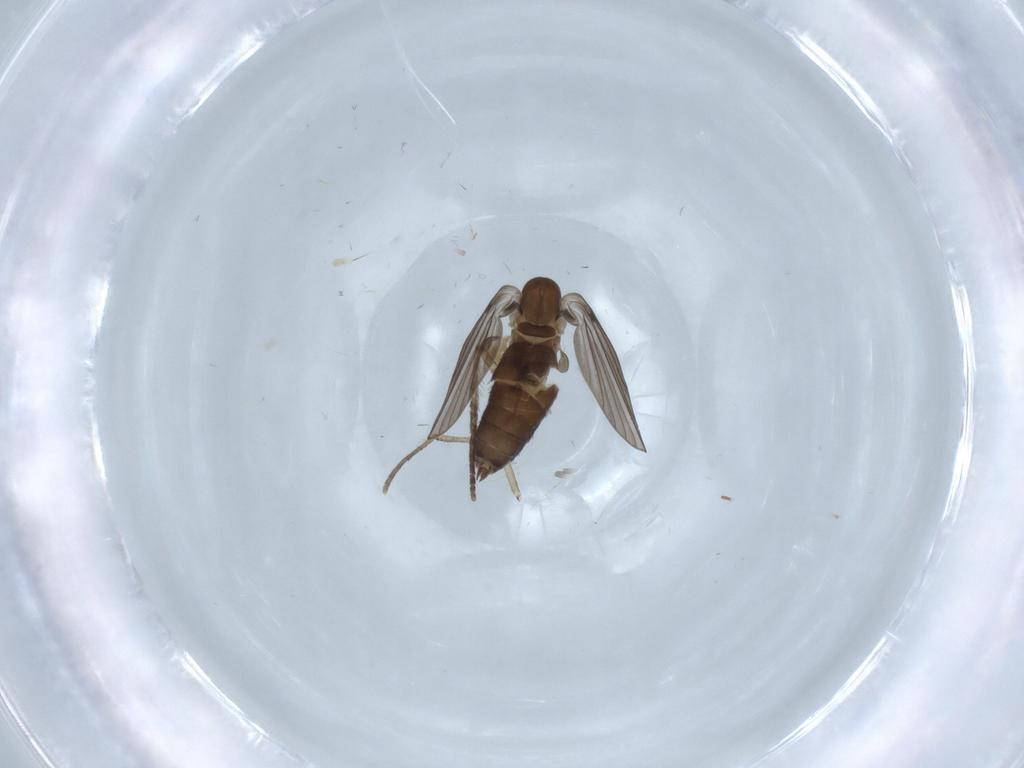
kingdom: Animalia
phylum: Arthropoda
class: Insecta
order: Diptera
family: Psychodidae
